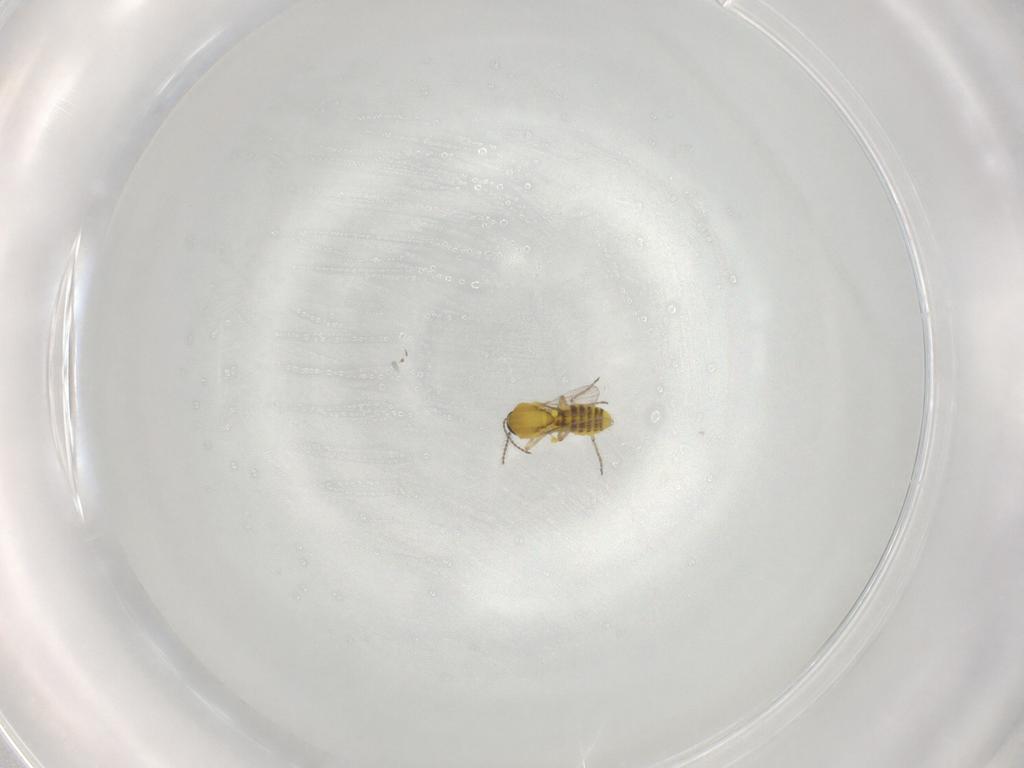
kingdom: Animalia
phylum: Arthropoda
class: Insecta
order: Diptera
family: Ceratopogonidae
